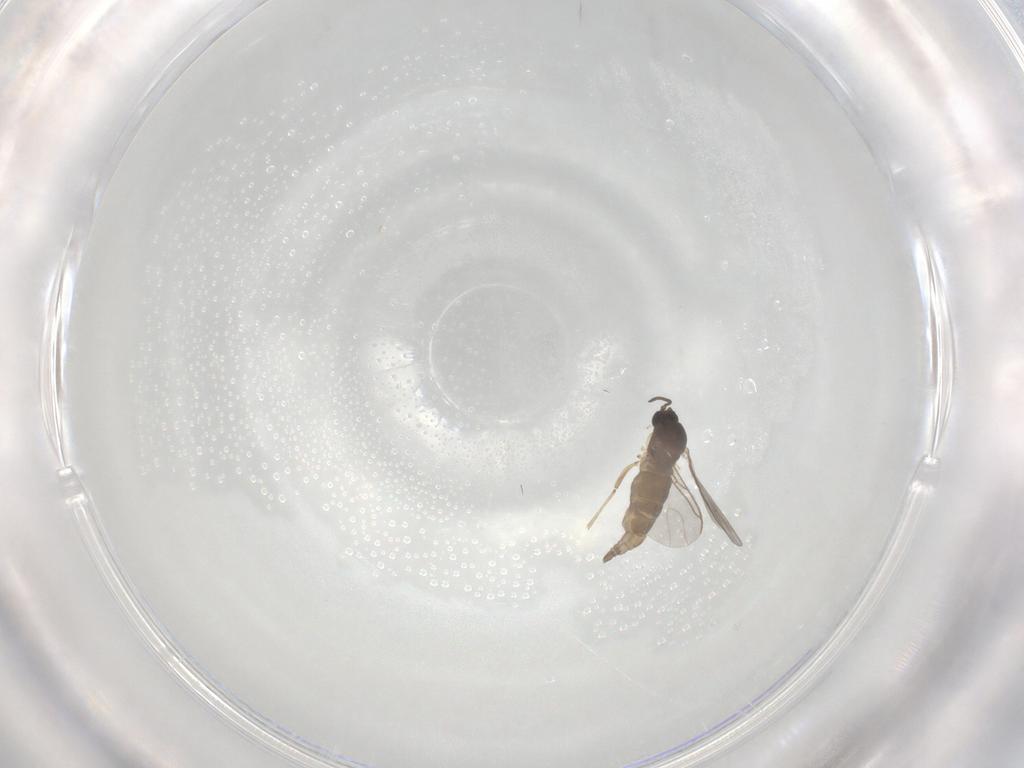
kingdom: Animalia
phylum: Arthropoda
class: Insecta
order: Diptera
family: Sciaridae
